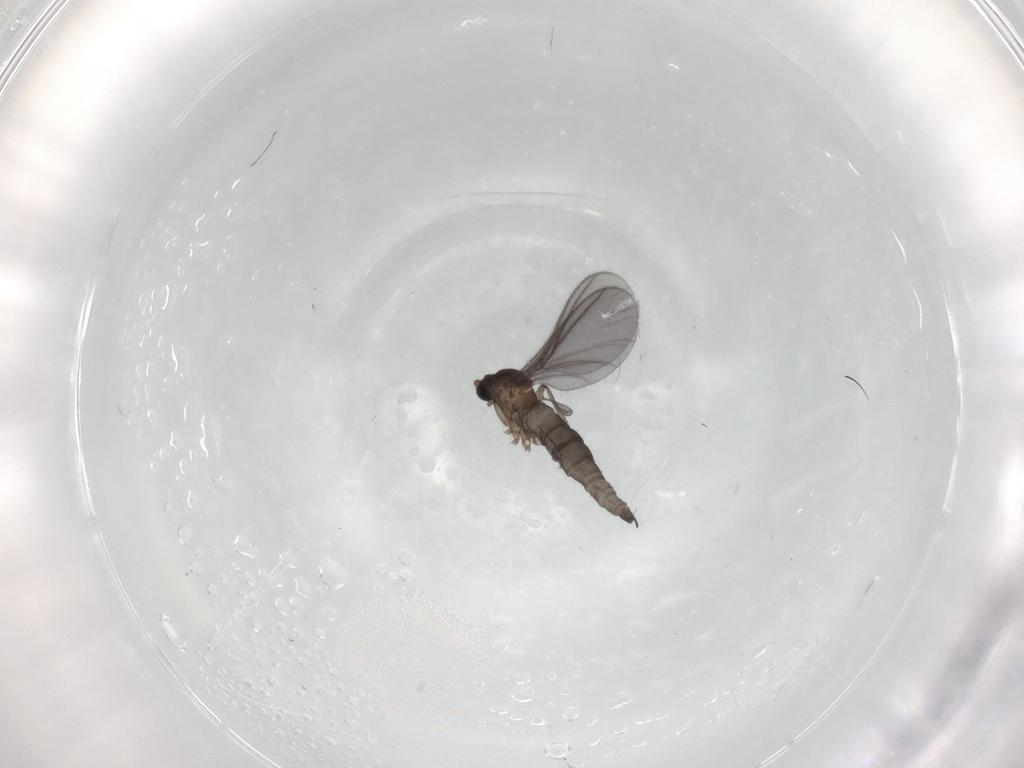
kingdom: Animalia
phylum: Arthropoda
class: Insecta
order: Diptera
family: Sciaridae
